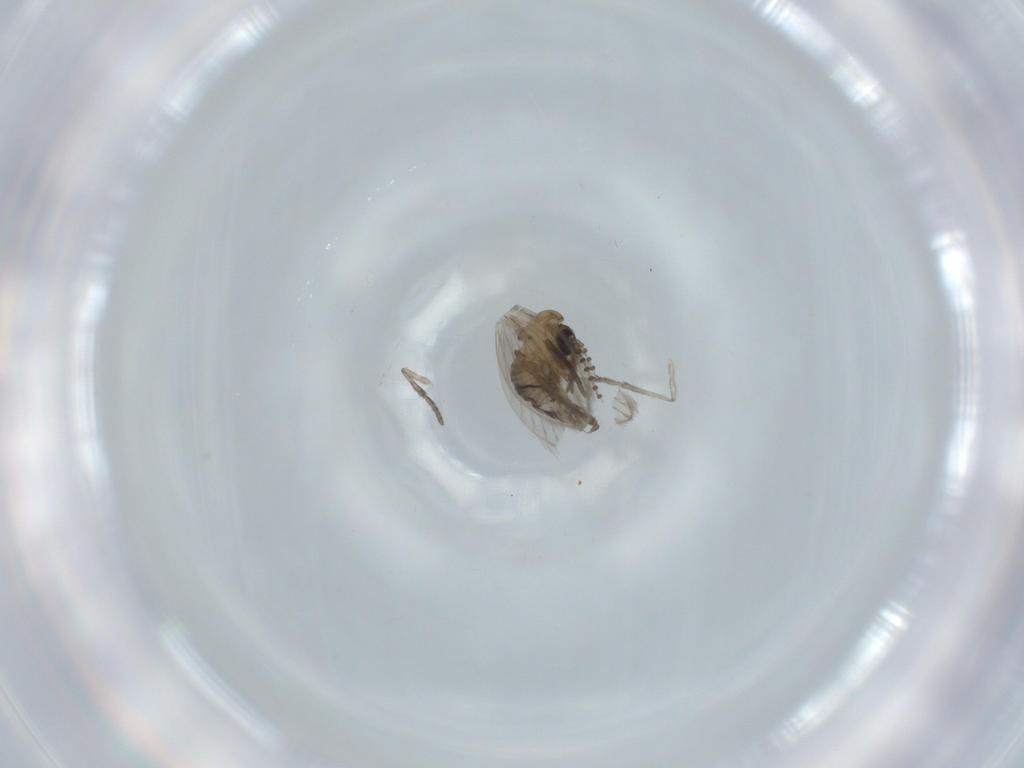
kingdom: Animalia
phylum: Arthropoda
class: Insecta
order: Diptera
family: Psychodidae
